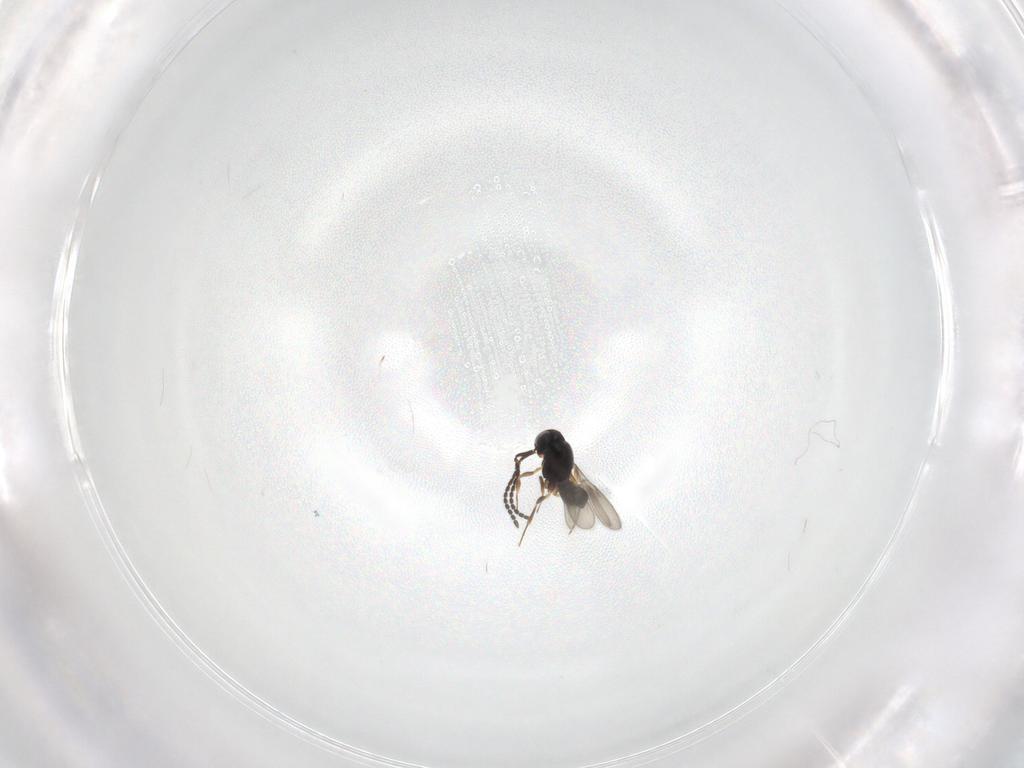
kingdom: Animalia
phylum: Arthropoda
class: Insecta
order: Hymenoptera
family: Scelionidae
